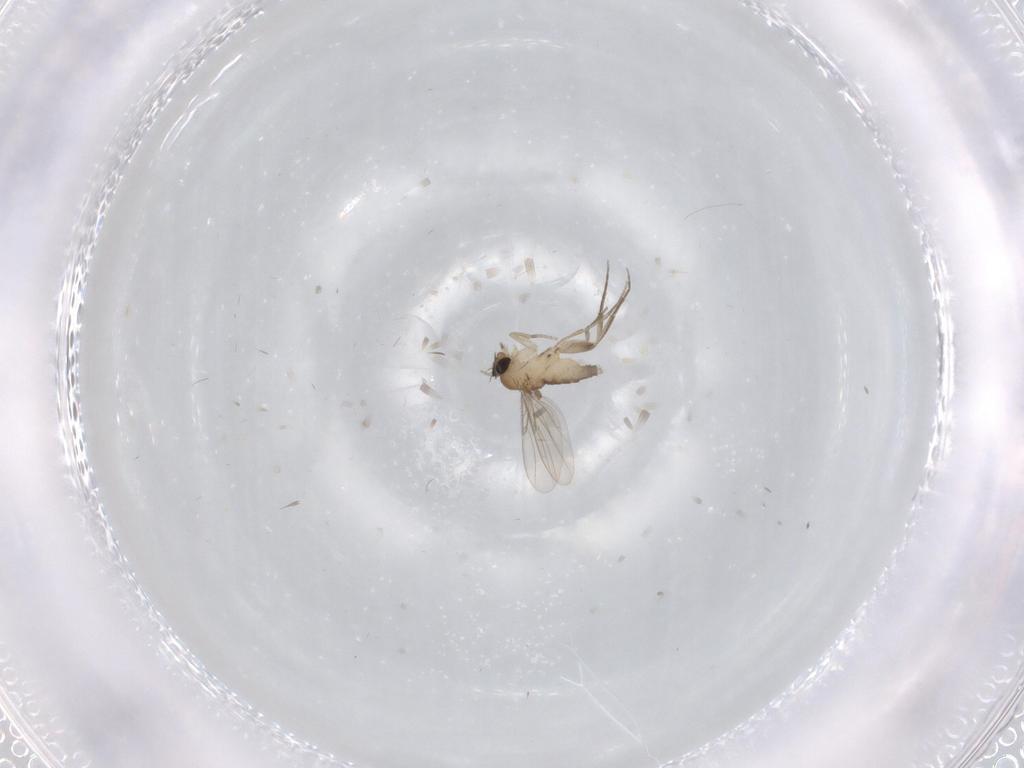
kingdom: Animalia
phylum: Arthropoda
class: Insecta
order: Diptera
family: Phoridae
